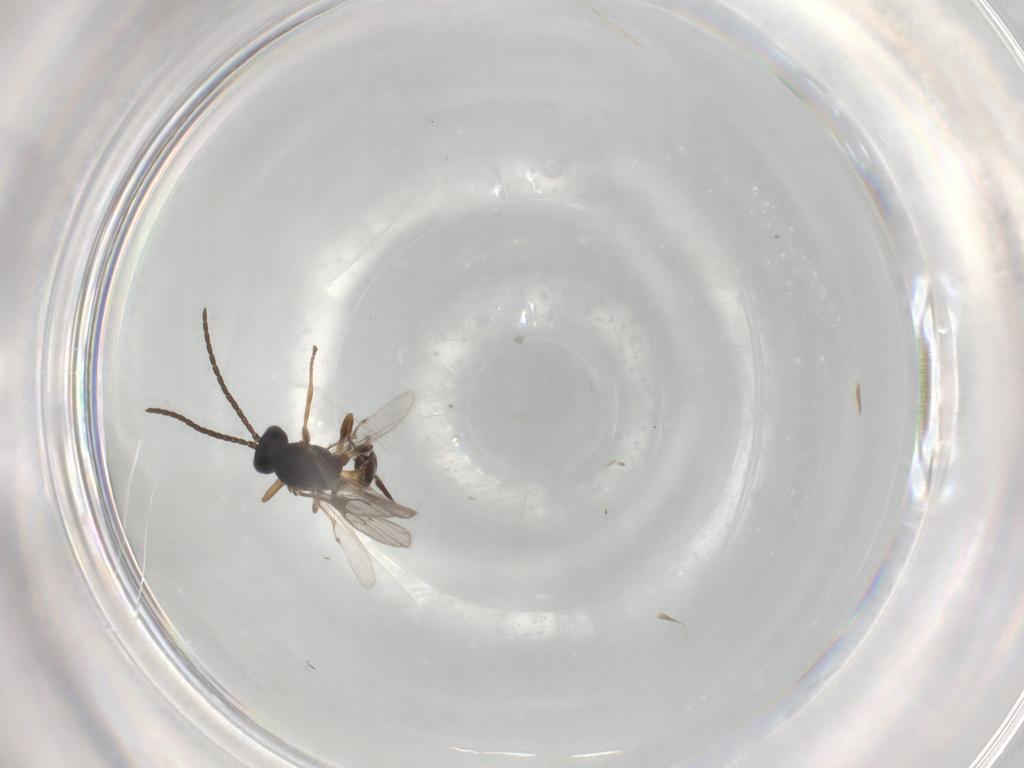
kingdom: Animalia
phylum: Arthropoda
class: Insecta
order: Hymenoptera
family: Braconidae
